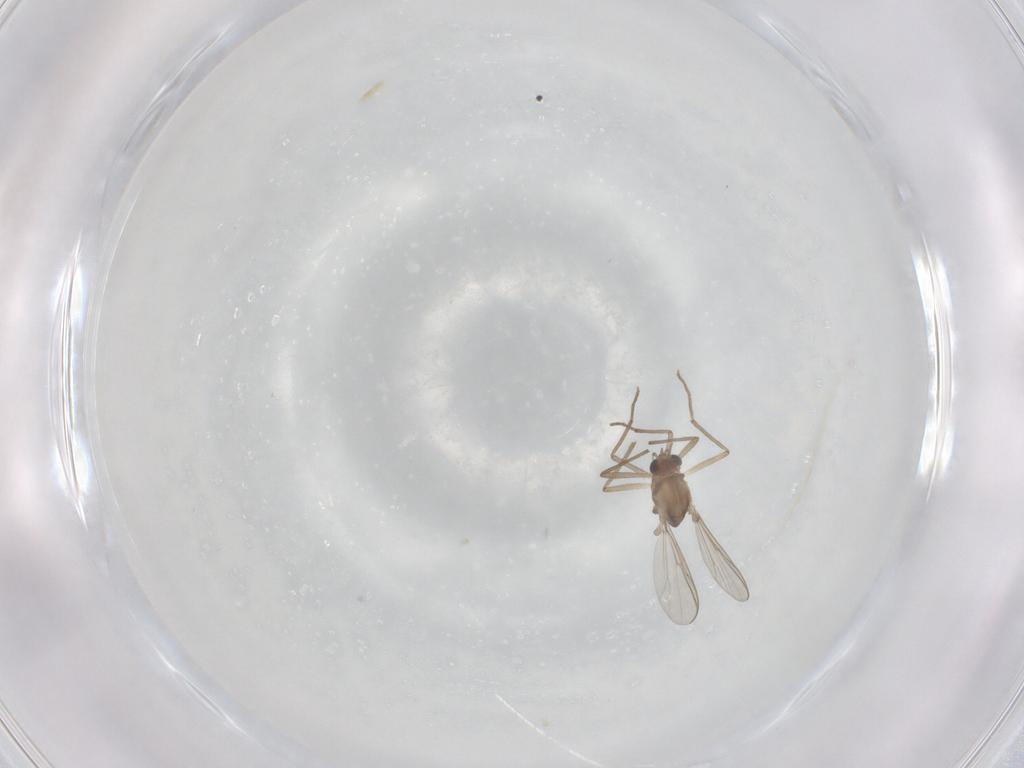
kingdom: Animalia
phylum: Arthropoda
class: Insecta
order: Diptera
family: Chironomidae
